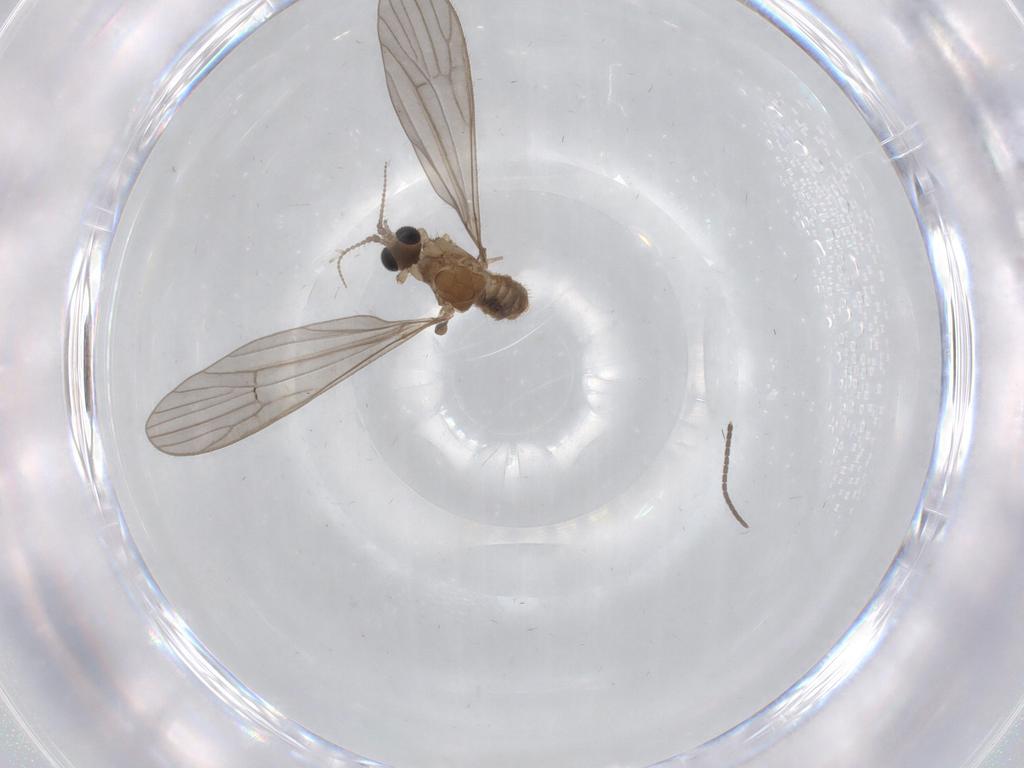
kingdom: Animalia
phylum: Arthropoda
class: Insecta
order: Diptera
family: Limoniidae
